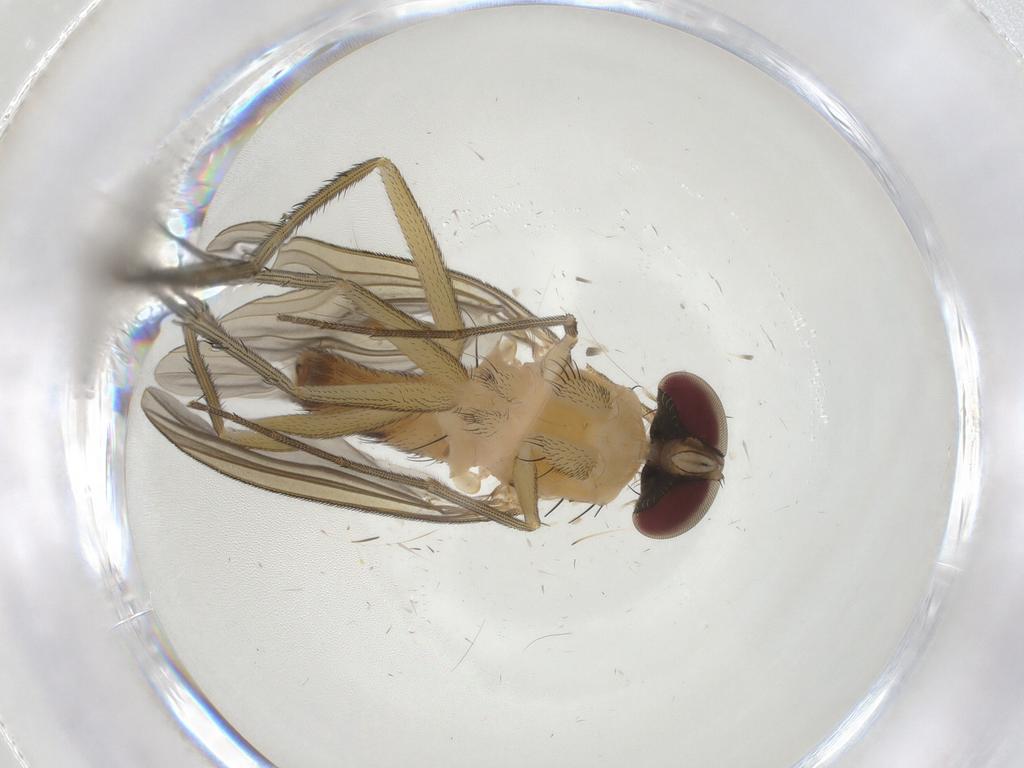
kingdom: Animalia
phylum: Arthropoda
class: Insecta
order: Diptera
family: Dolichopodidae
